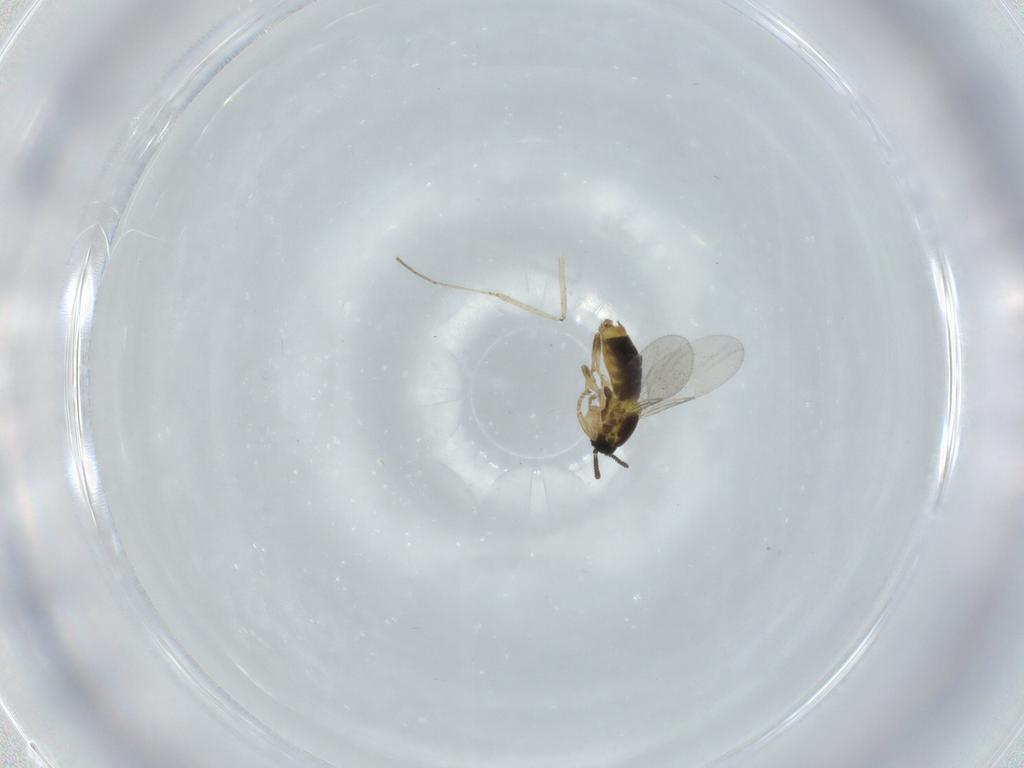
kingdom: Animalia
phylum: Arthropoda
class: Insecta
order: Diptera
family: Scatopsidae
